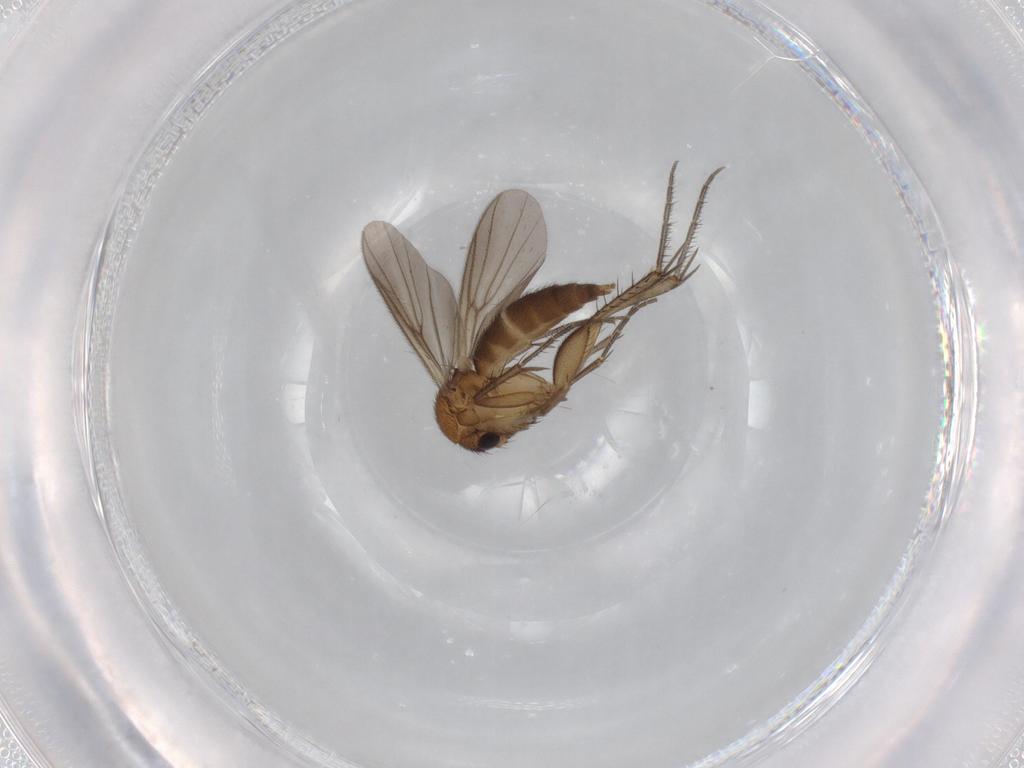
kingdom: Animalia
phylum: Arthropoda
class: Insecta
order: Diptera
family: Mycetophilidae
